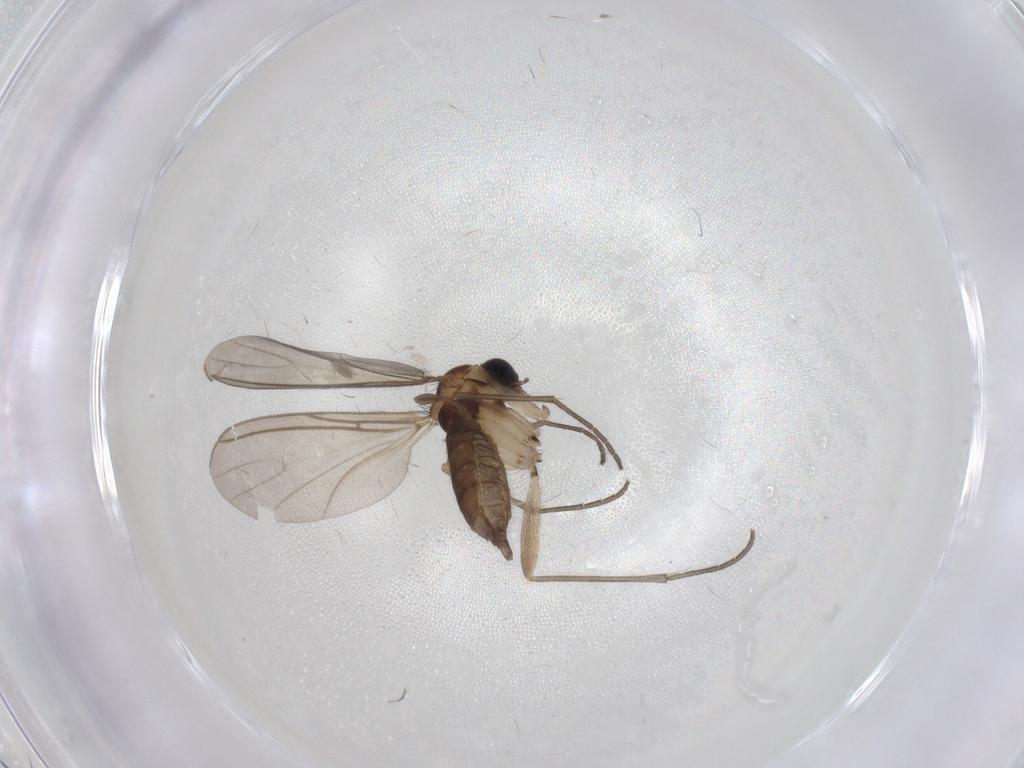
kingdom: Animalia
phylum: Arthropoda
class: Insecta
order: Diptera
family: Sciaridae
